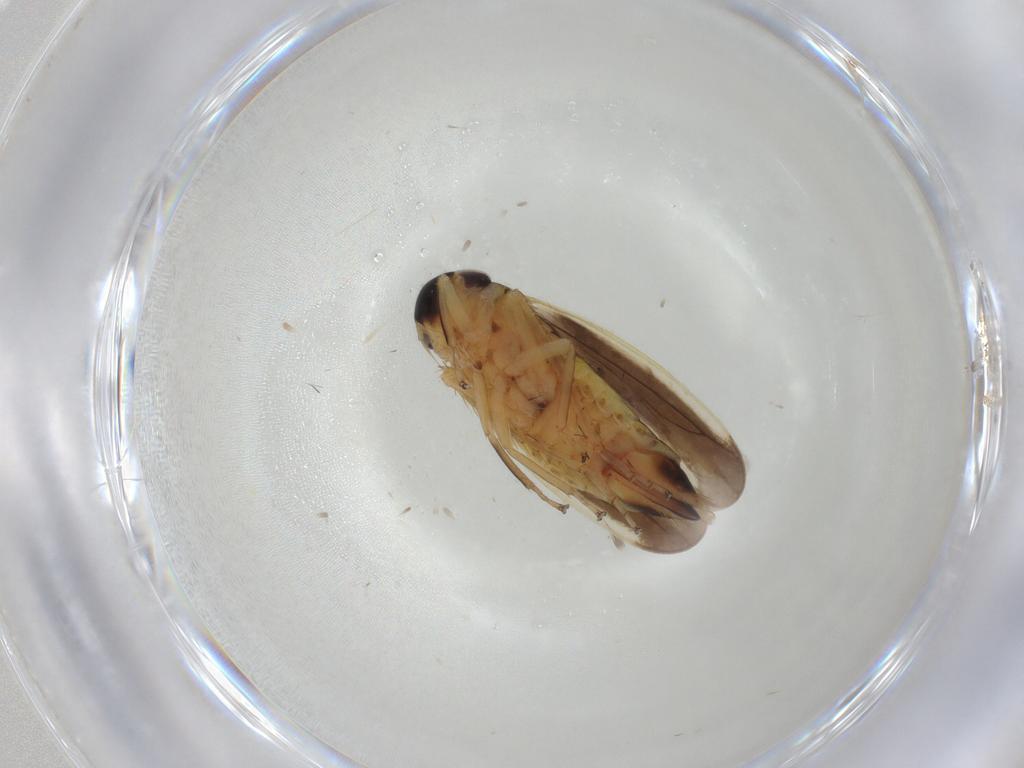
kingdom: Animalia
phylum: Arthropoda
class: Insecta
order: Hemiptera
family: Cicadellidae
